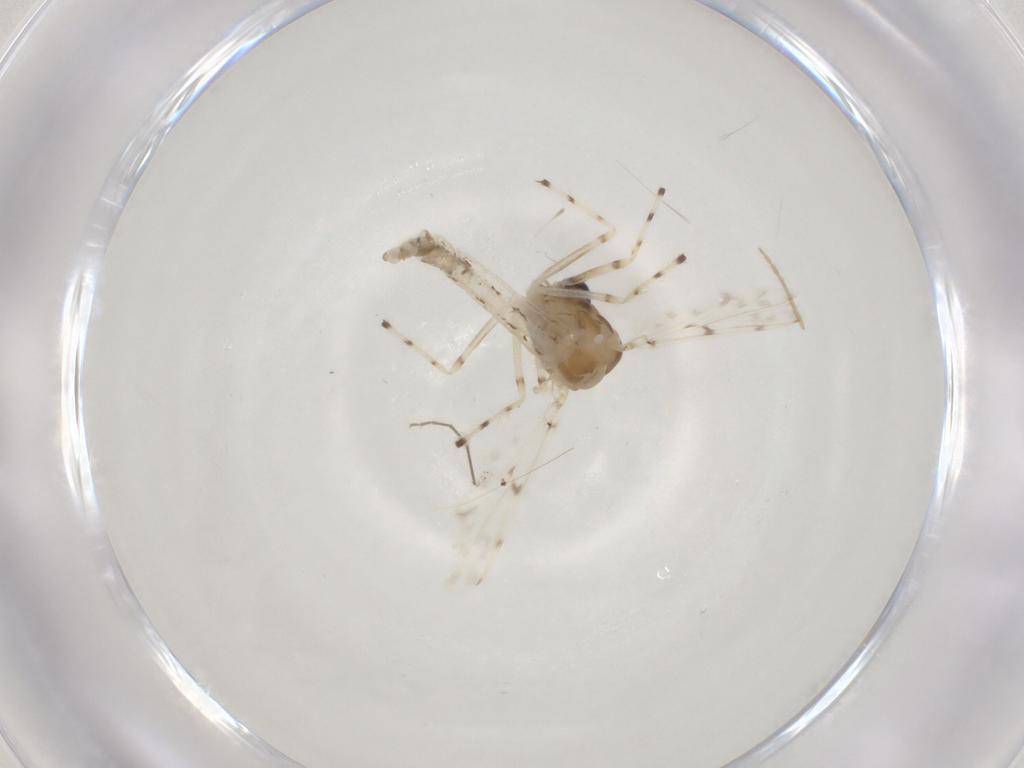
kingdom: Animalia
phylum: Arthropoda
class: Insecta
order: Diptera
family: Chironomidae
